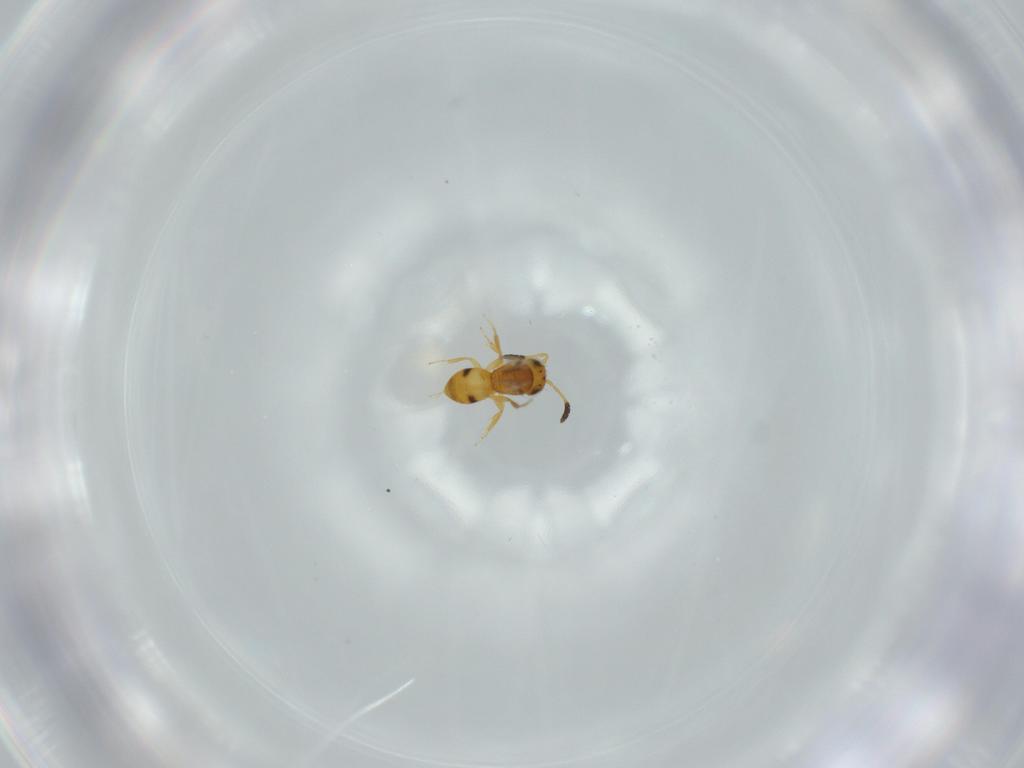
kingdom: Animalia
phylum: Arthropoda
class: Insecta
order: Hymenoptera
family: Scelionidae
